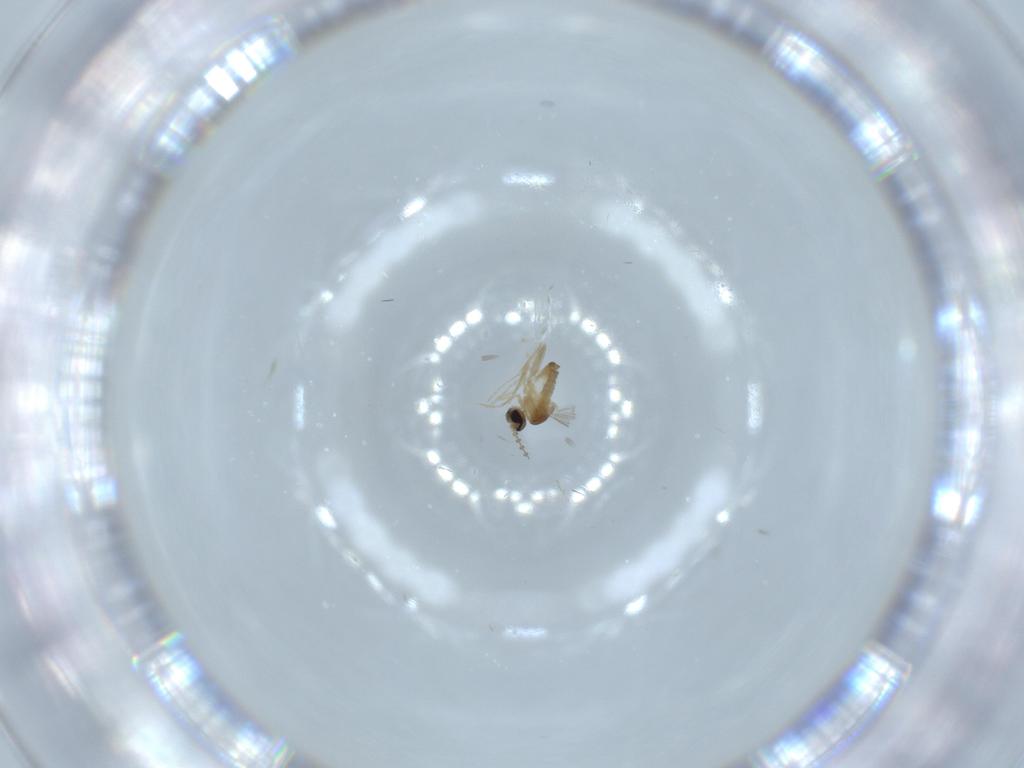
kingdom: Animalia
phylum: Arthropoda
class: Insecta
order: Diptera
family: Cecidomyiidae
